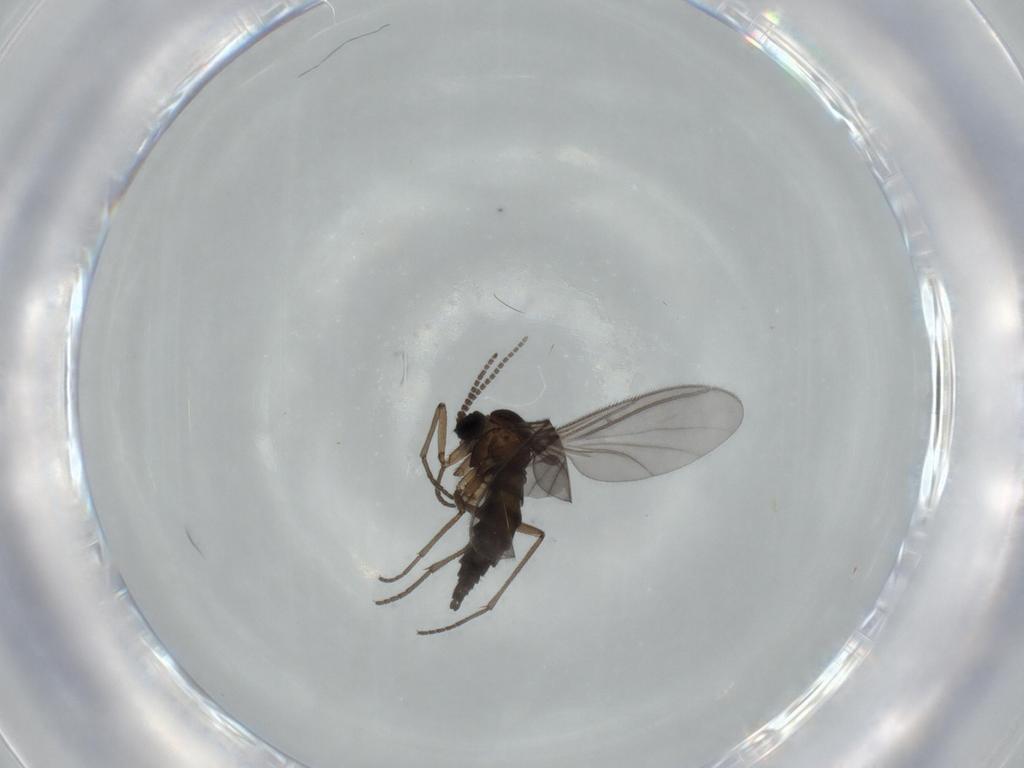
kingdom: Animalia
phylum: Arthropoda
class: Insecta
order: Diptera
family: Sciaridae
